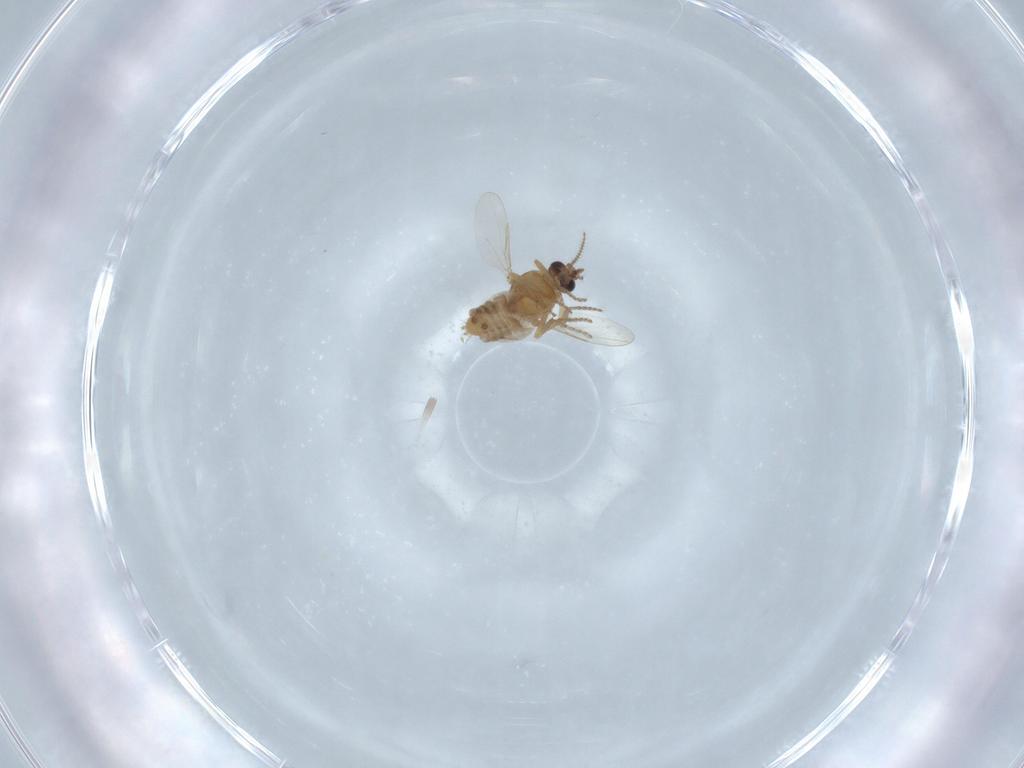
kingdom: Animalia
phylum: Arthropoda
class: Insecta
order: Diptera
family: Ceratopogonidae
